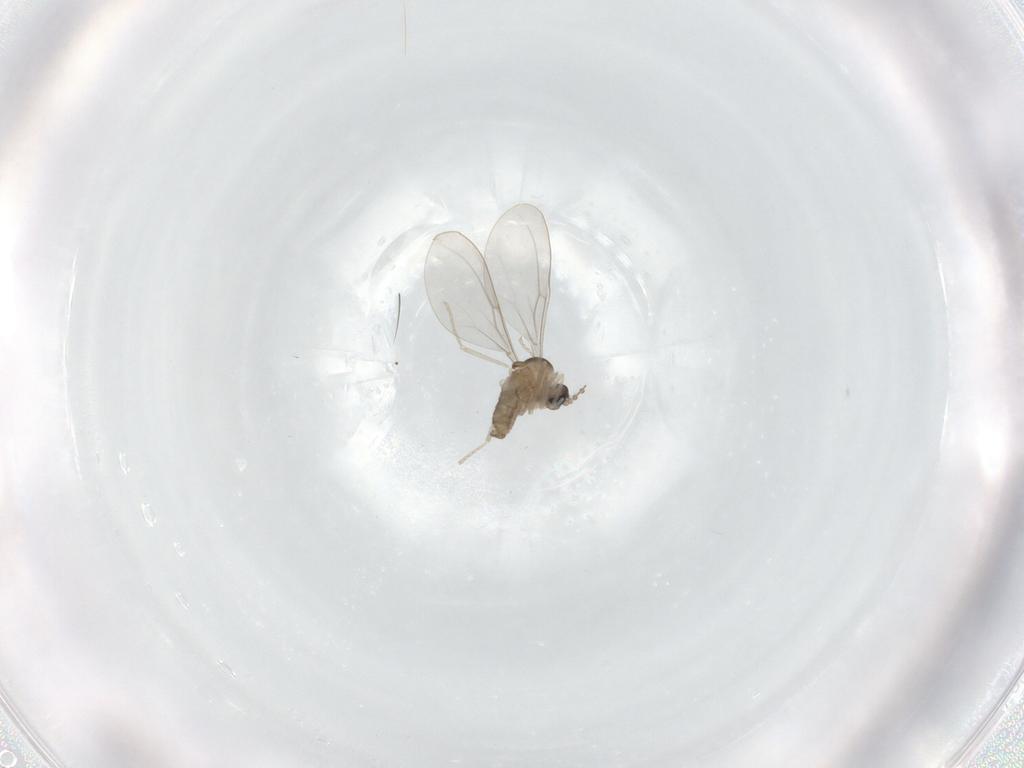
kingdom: Animalia
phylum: Arthropoda
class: Insecta
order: Diptera
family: Cecidomyiidae
